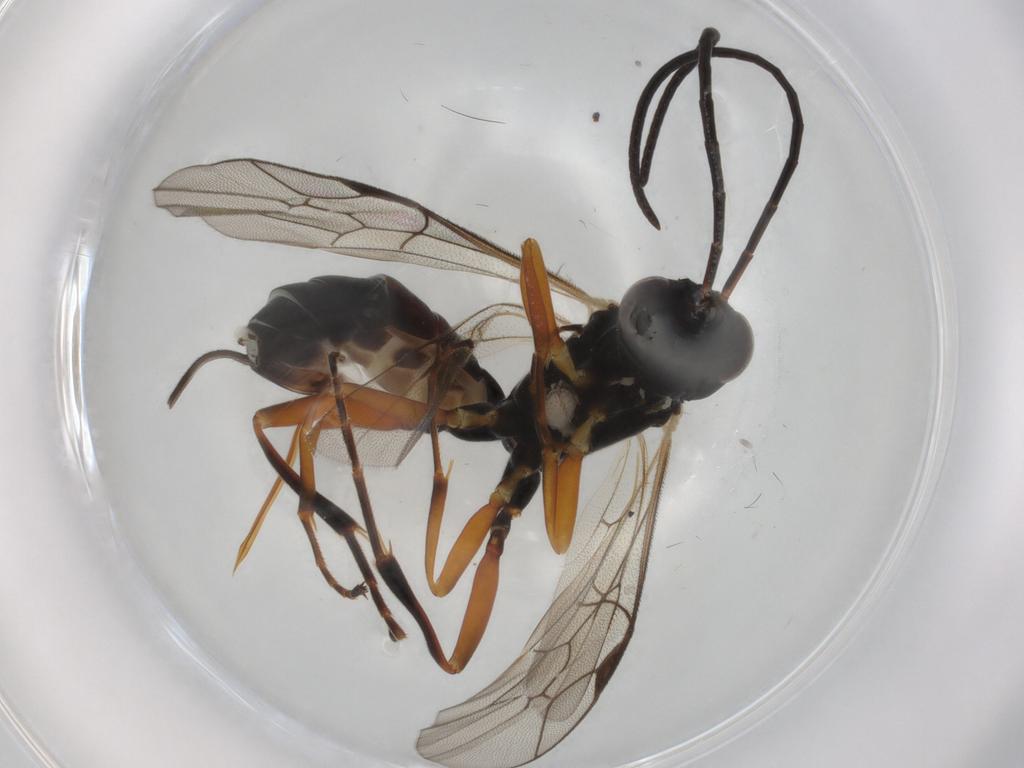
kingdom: Animalia
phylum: Arthropoda
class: Insecta
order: Hymenoptera
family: Ichneumonidae
